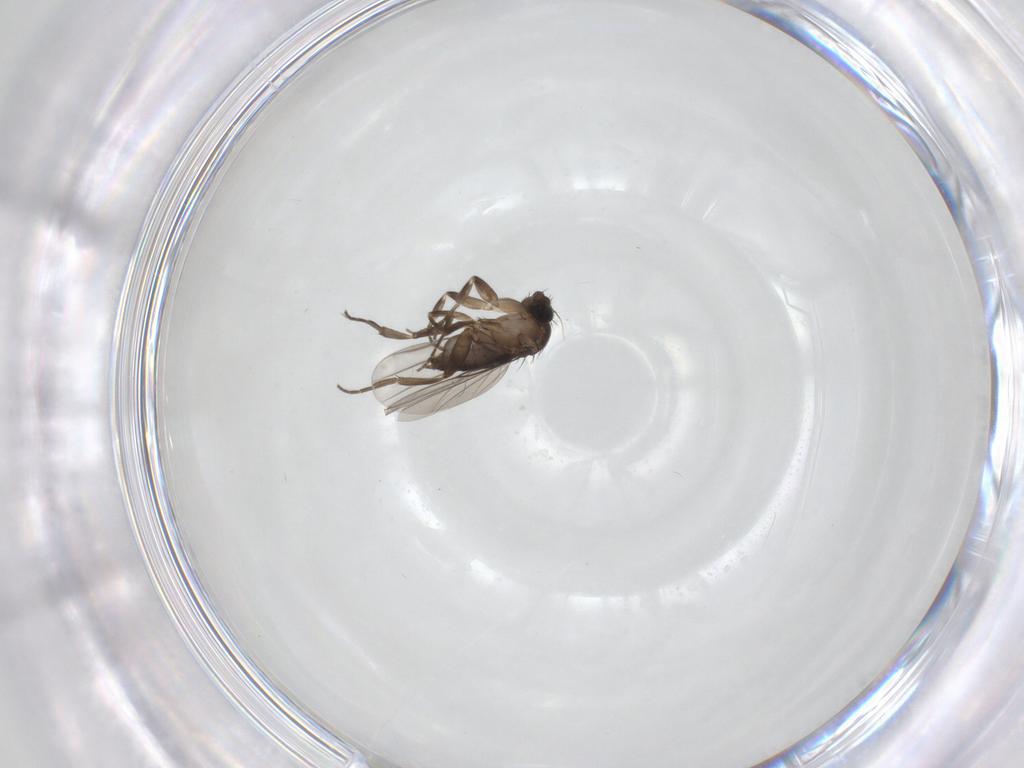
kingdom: Animalia
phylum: Arthropoda
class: Insecta
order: Diptera
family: Phoridae
